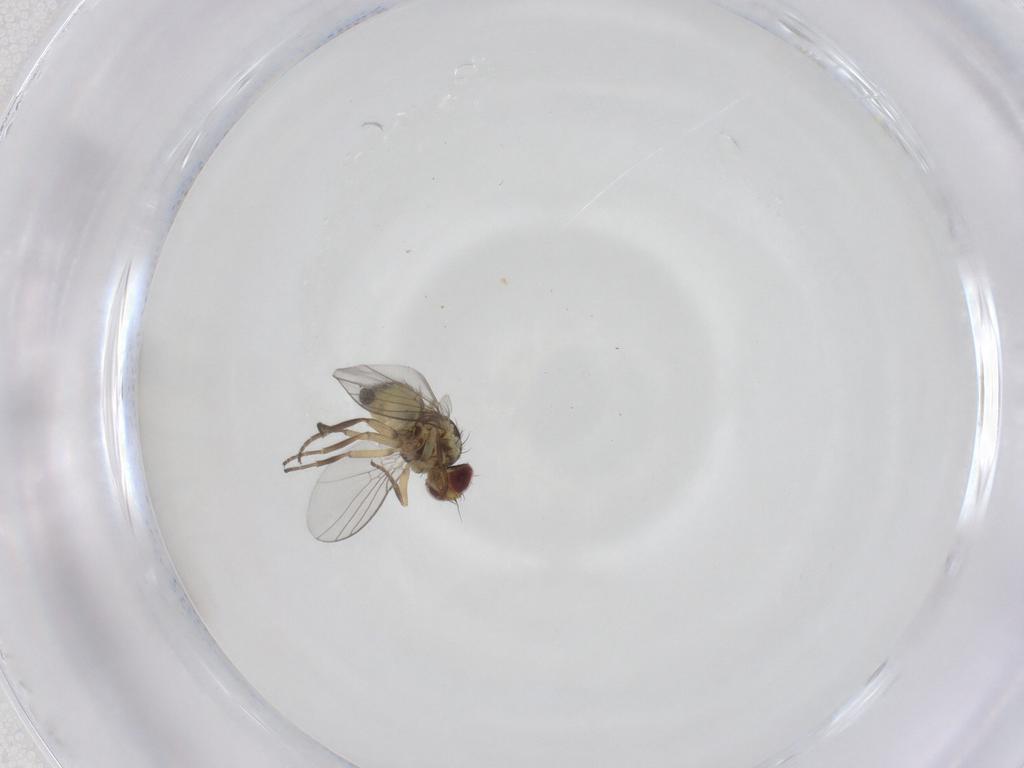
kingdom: Animalia
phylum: Arthropoda
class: Insecta
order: Diptera
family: Agromyzidae
